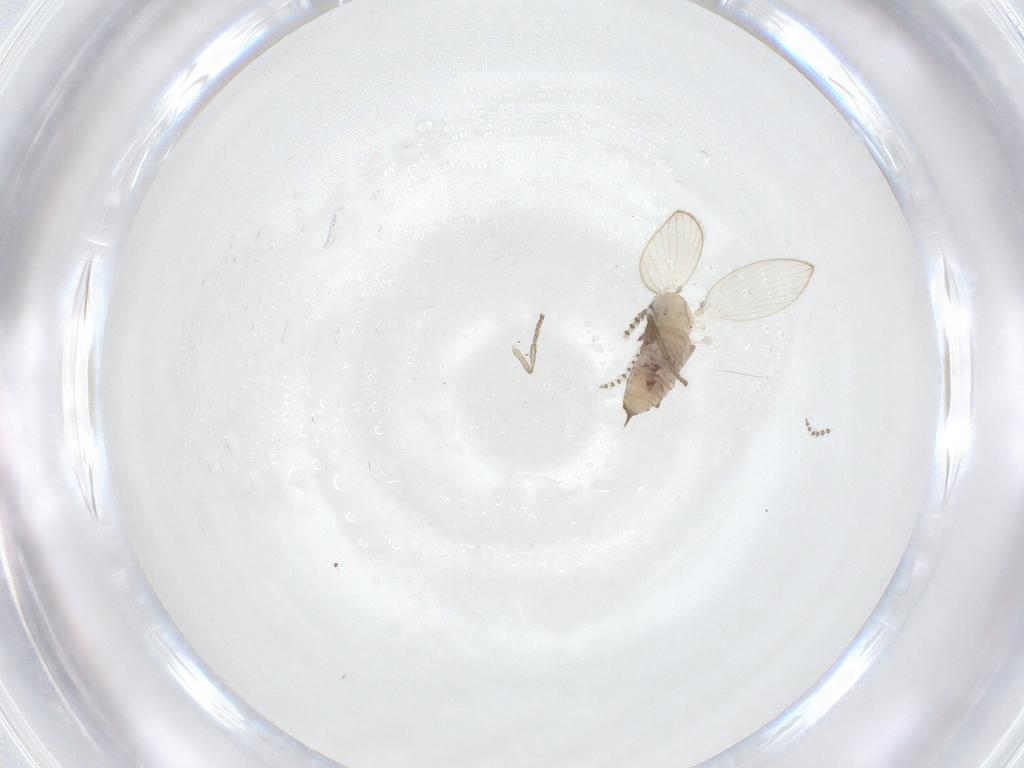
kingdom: Animalia
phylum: Arthropoda
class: Insecta
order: Diptera
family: Psychodidae
